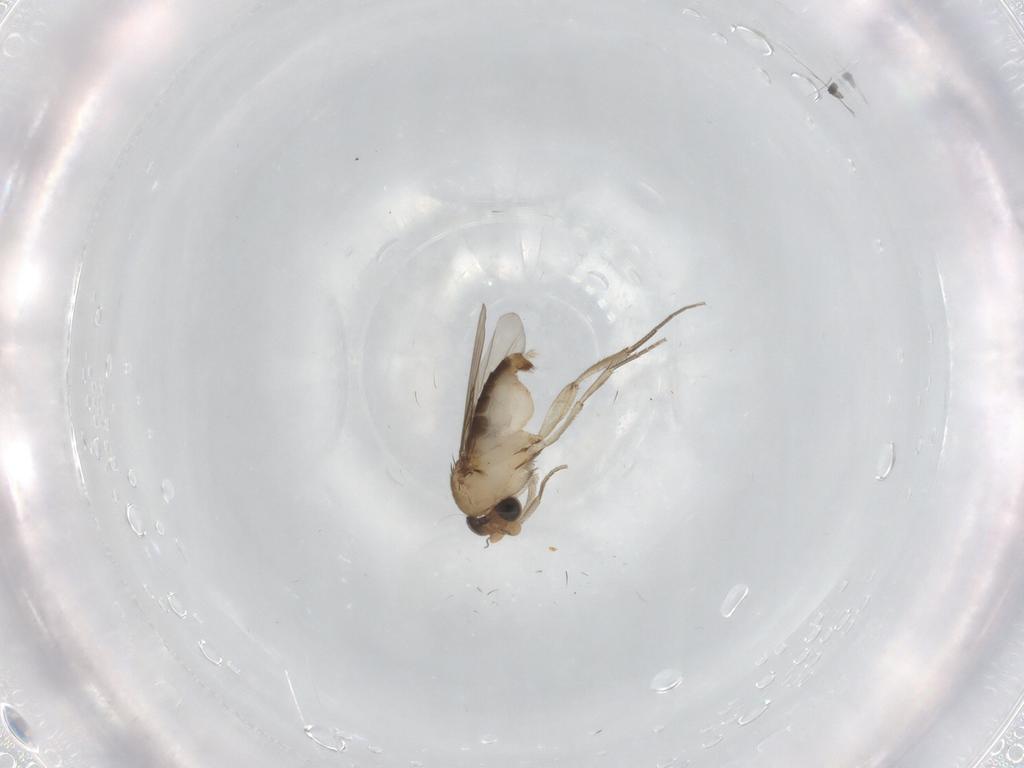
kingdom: Animalia
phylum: Arthropoda
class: Insecta
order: Diptera
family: Phoridae
